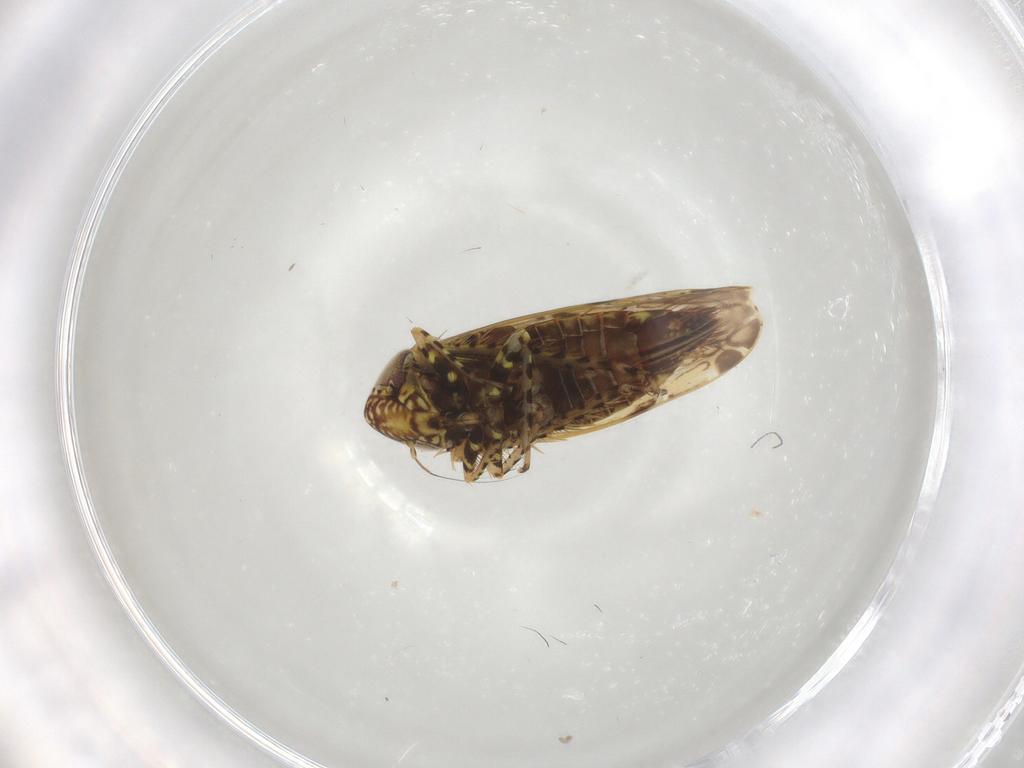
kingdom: Animalia
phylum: Arthropoda
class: Insecta
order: Hemiptera
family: Cicadellidae
